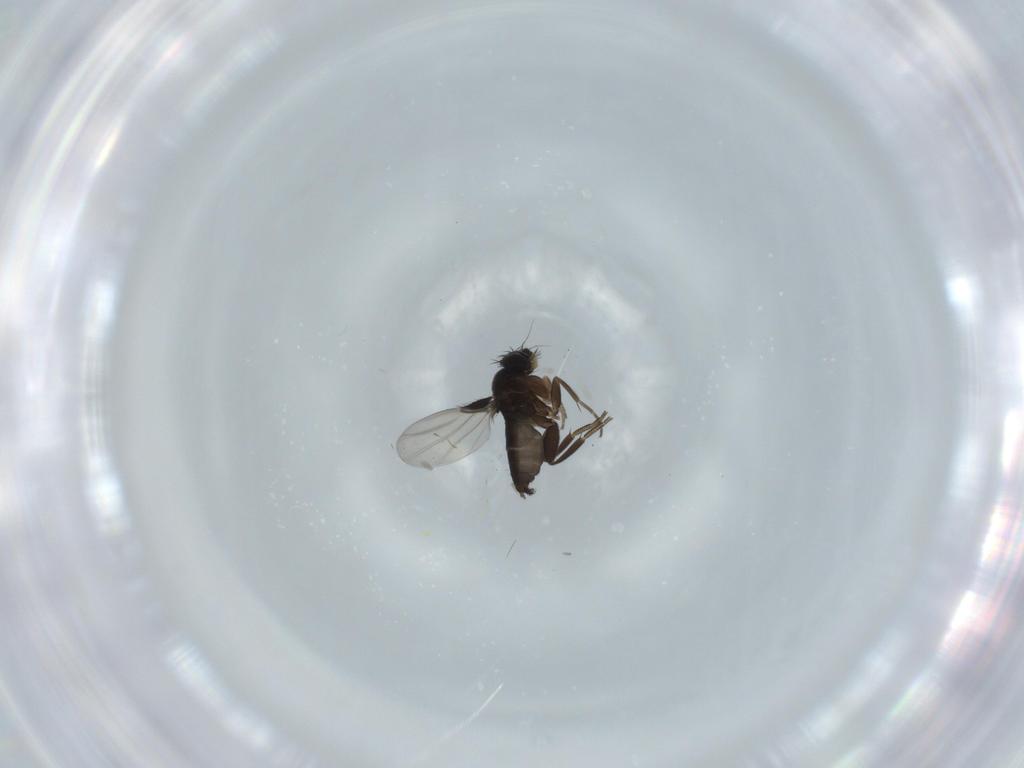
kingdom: Animalia
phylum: Arthropoda
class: Insecta
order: Diptera
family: Phoridae
